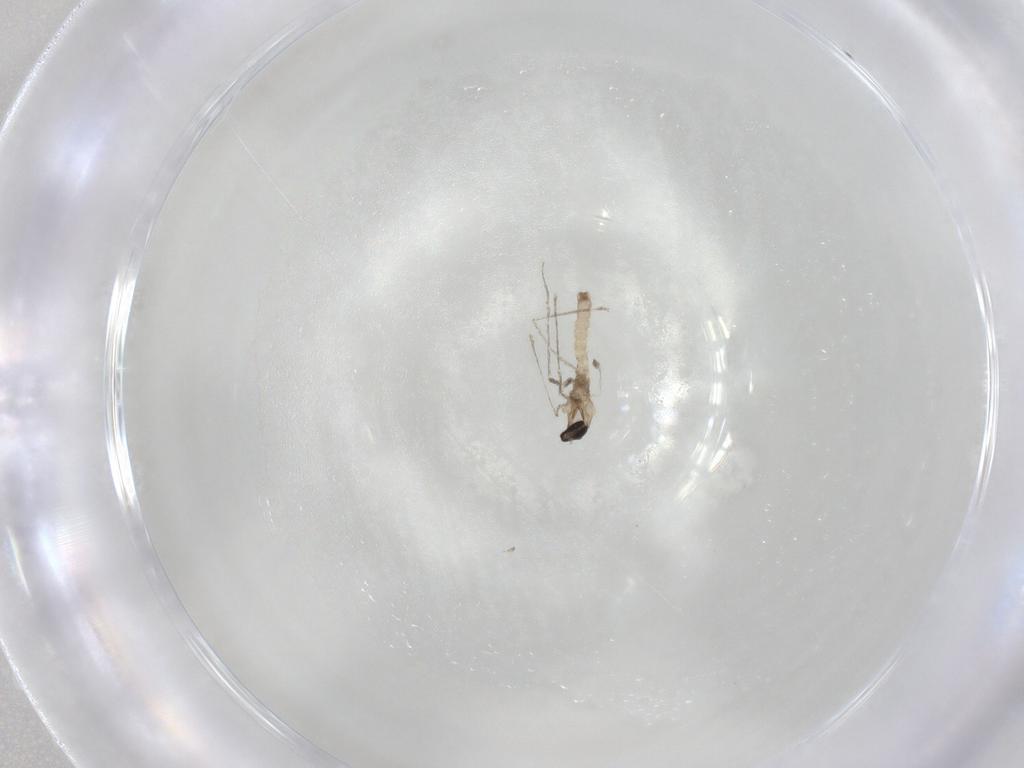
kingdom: Animalia
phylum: Arthropoda
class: Insecta
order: Diptera
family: Cecidomyiidae
